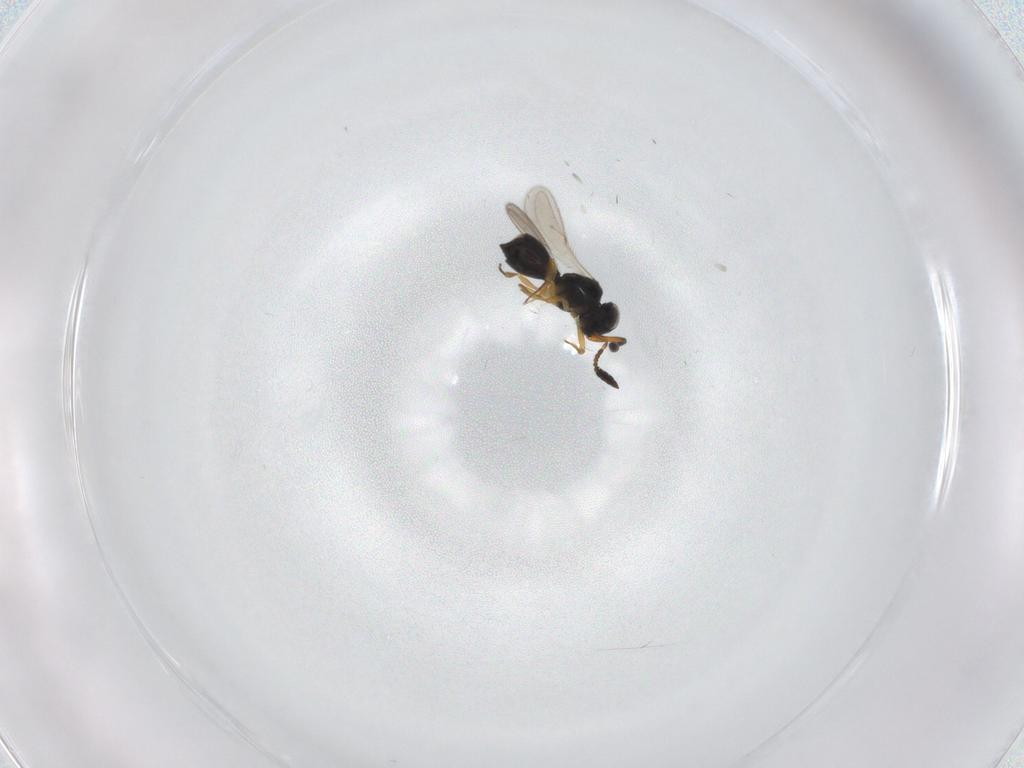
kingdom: Animalia
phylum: Arthropoda
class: Insecta
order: Hymenoptera
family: Scelionidae
